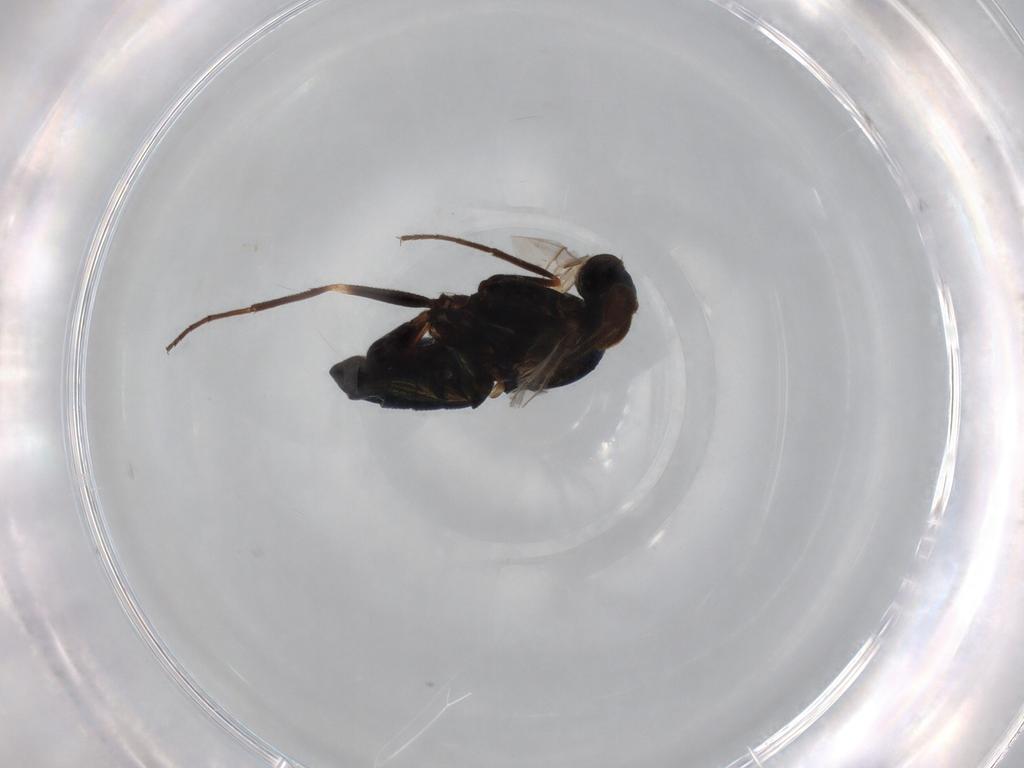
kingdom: Animalia
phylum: Arthropoda
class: Insecta
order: Diptera
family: Dolichopodidae
